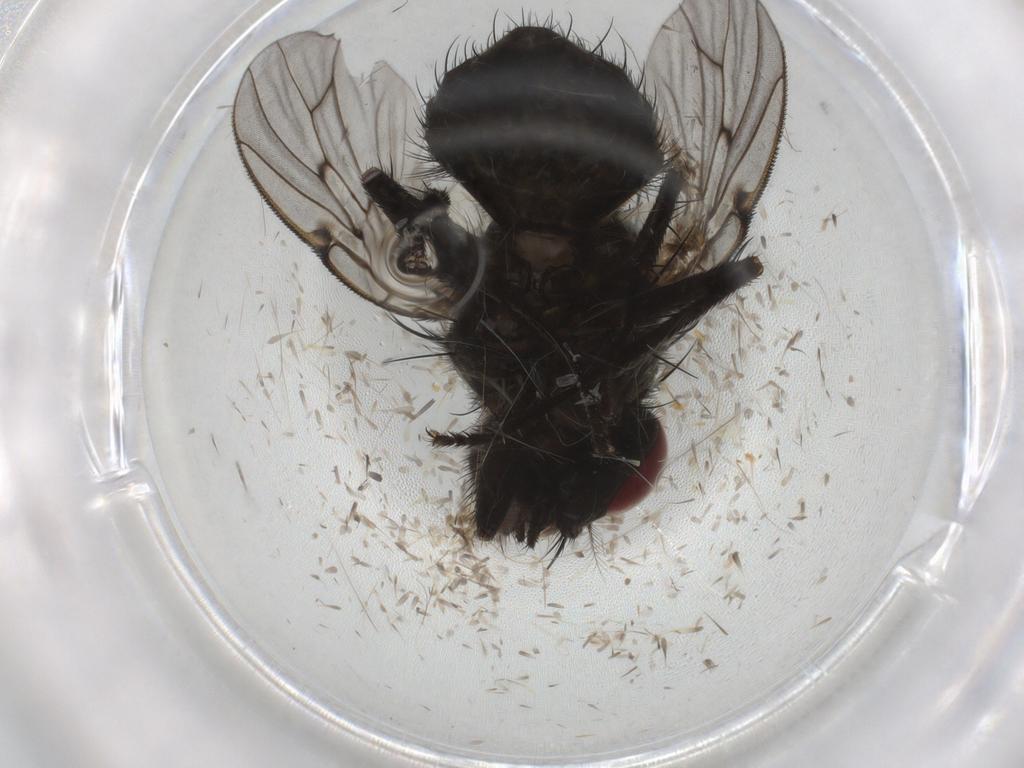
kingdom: Animalia
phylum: Arthropoda
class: Insecta
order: Diptera
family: Muscidae
